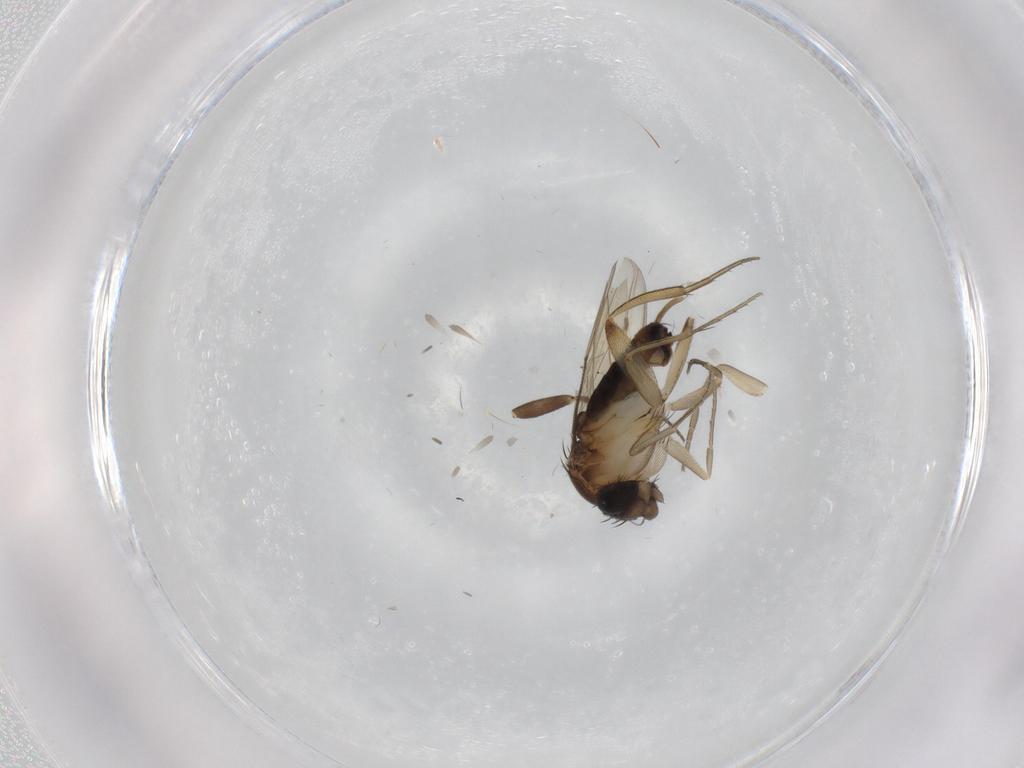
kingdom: Animalia
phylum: Arthropoda
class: Insecta
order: Diptera
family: Phoridae
